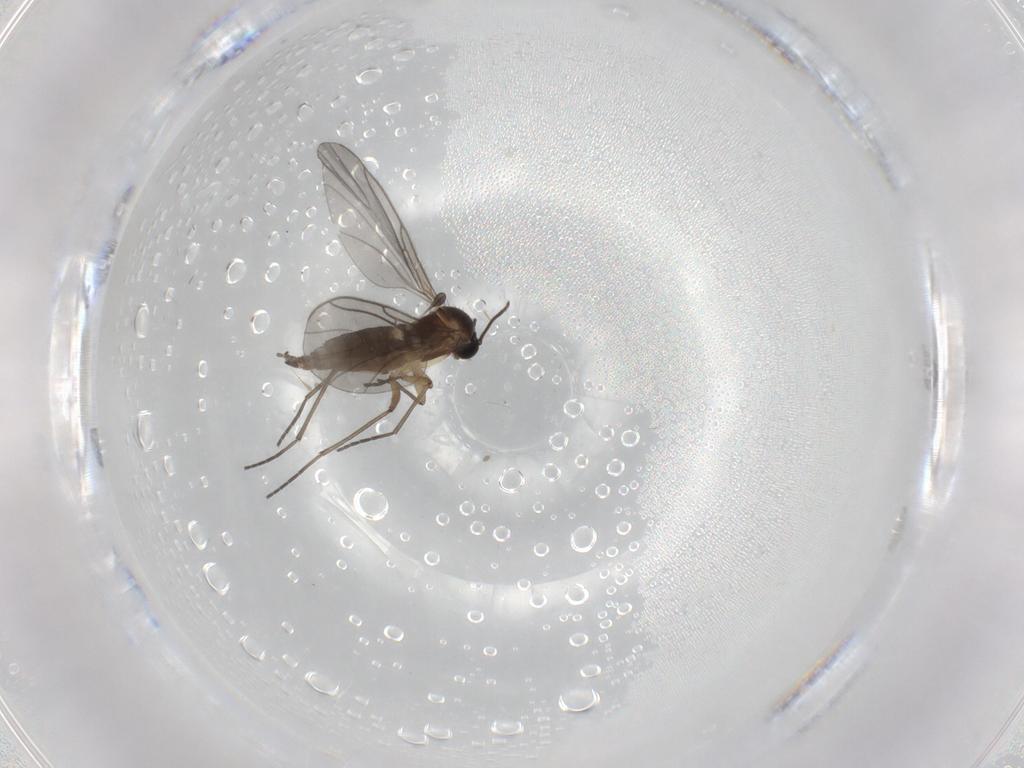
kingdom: Animalia
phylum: Arthropoda
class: Insecta
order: Diptera
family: Sciaridae
